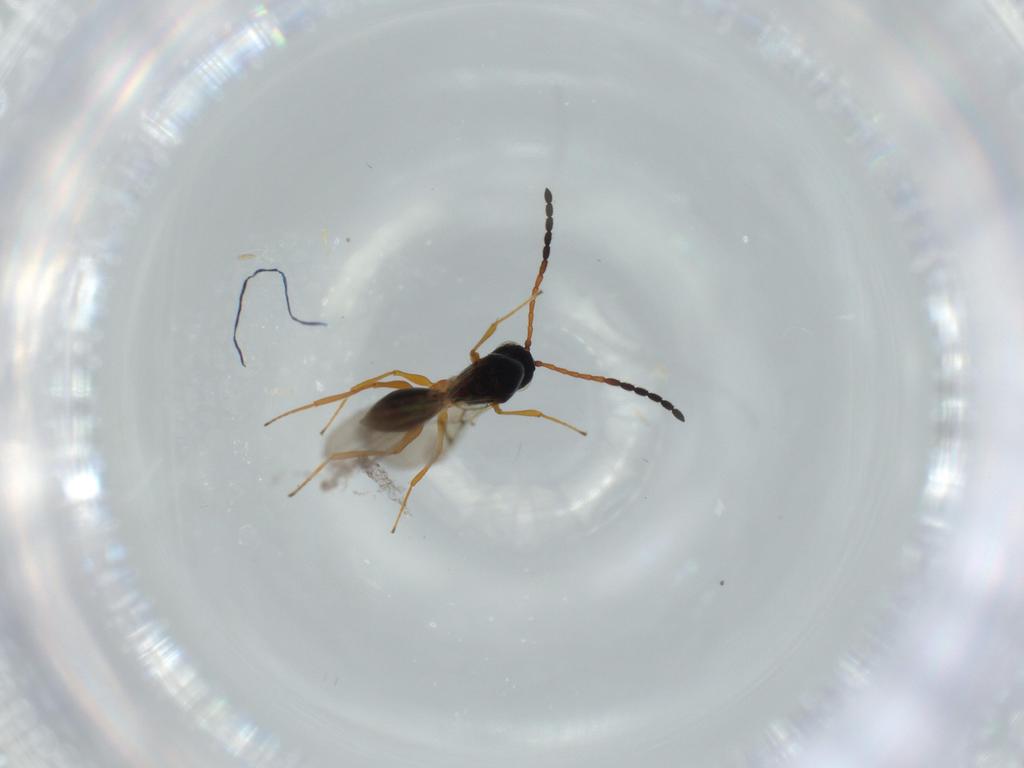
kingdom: Animalia
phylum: Arthropoda
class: Insecta
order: Hymenoptera
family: Figitidae
